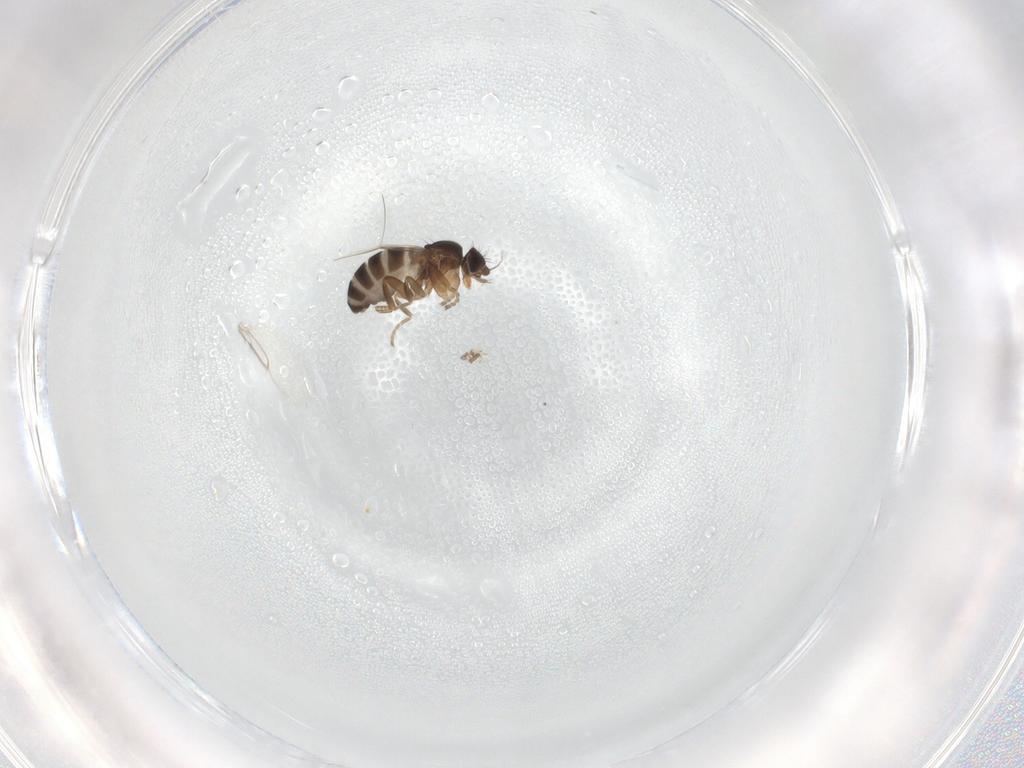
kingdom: Animalia
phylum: Arthropoda
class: Insecta
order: Diptera
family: Phoridae
